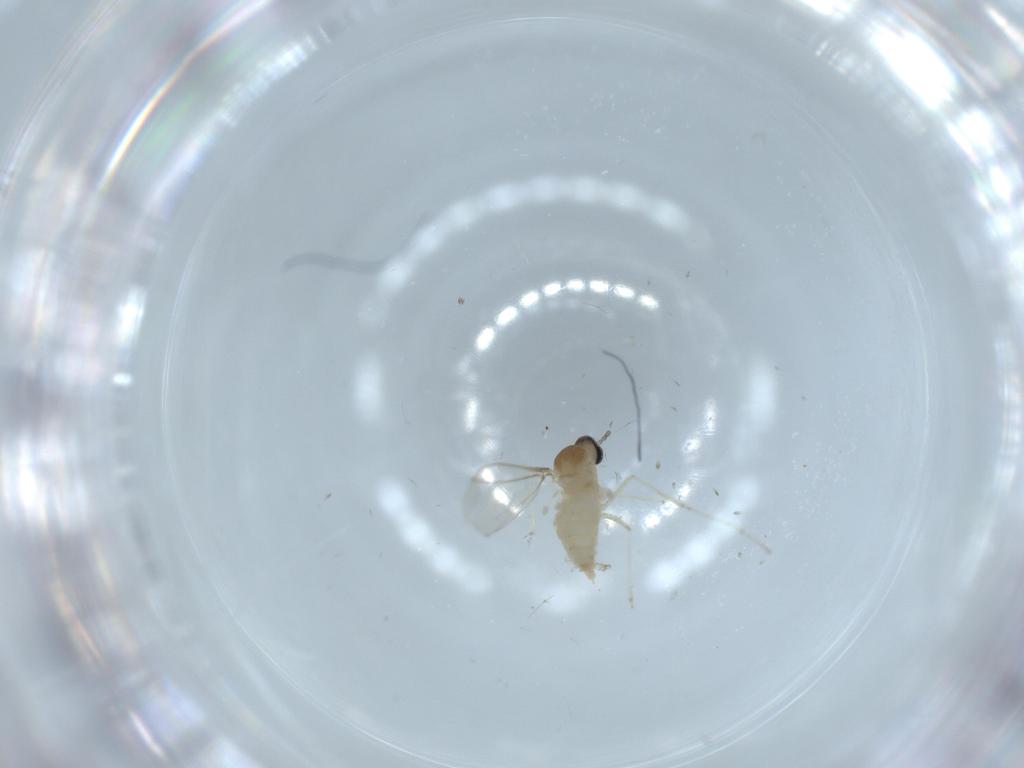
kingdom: Animalia
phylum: Arthropoda
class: Insecta
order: Diptera
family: Cecidomyiidae
